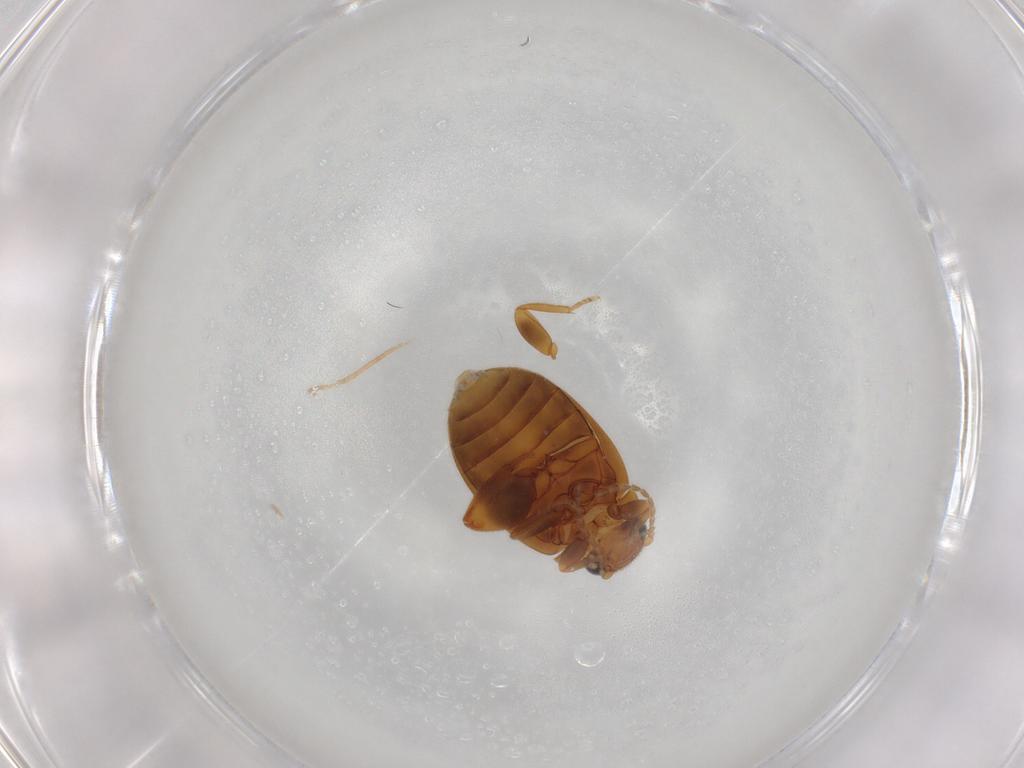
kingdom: Animalia
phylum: Arthropoda
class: Insecta
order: Coleoptera
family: Scirtidae
